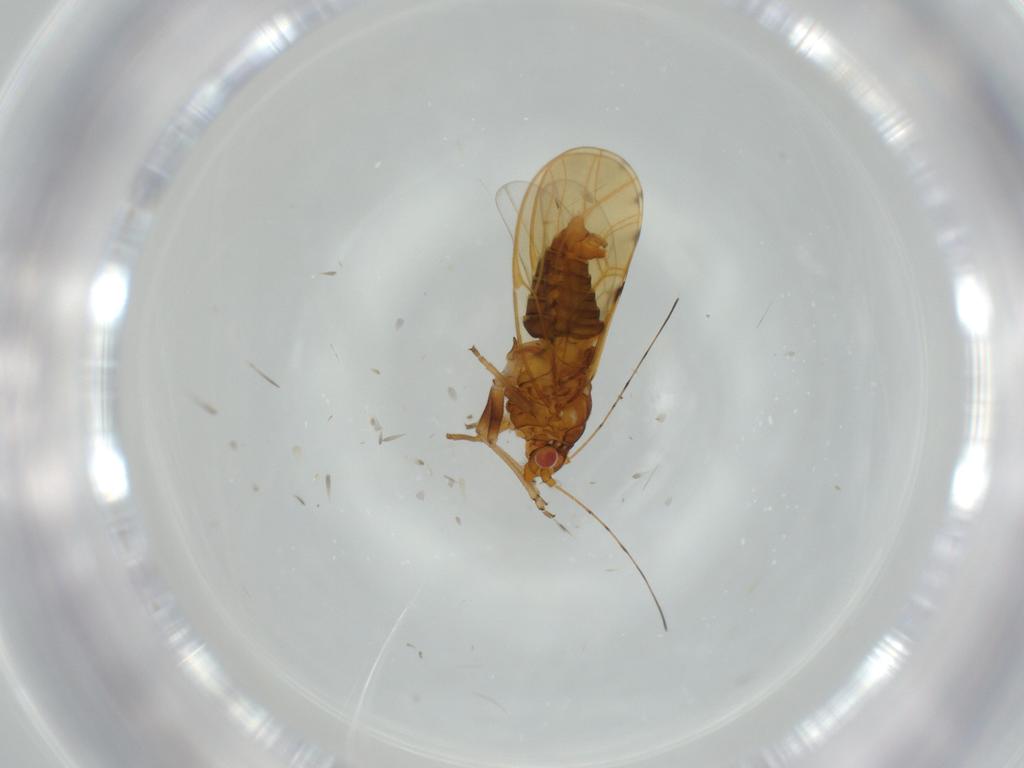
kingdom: Animalia
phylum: Arthropoda
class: Insecta
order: Hemiptera
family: Psylloidea_incertae_sedis
